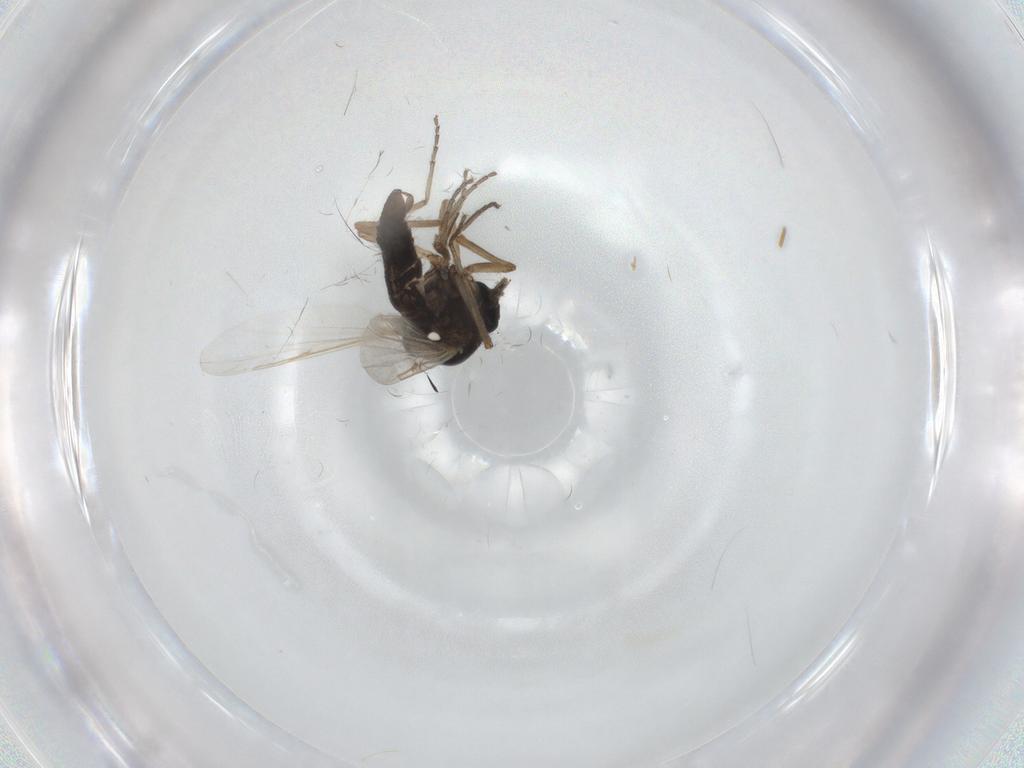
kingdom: Animalia
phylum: Arthropoda
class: Insecta
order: Diptera
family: Ceratopogonidae
